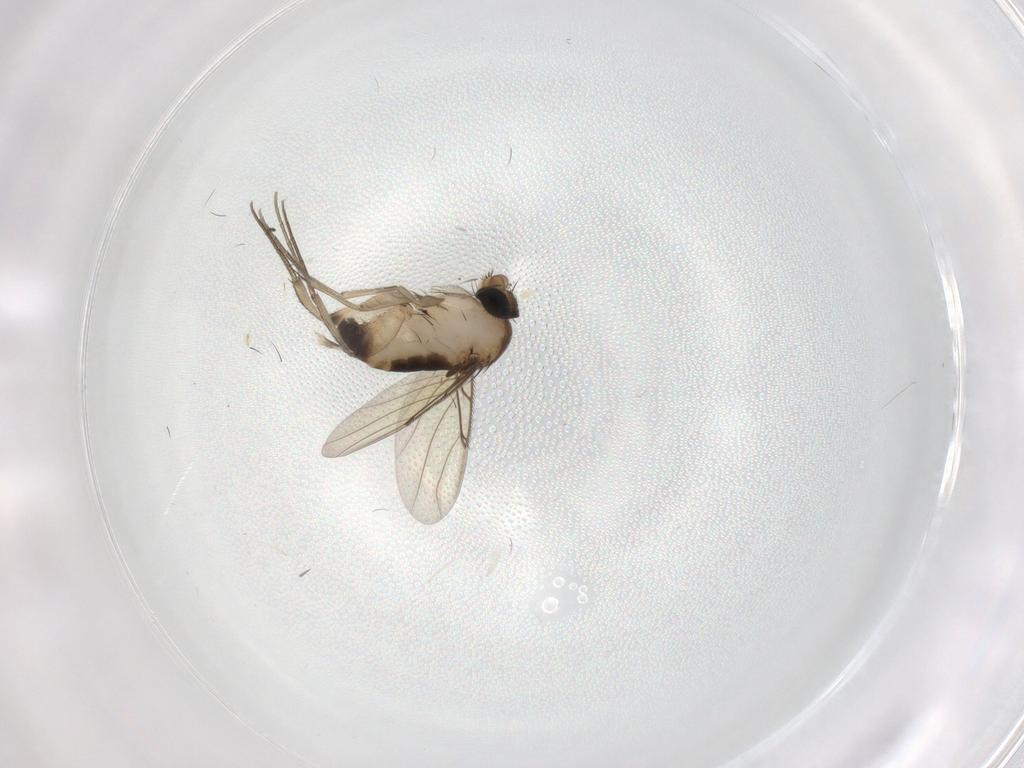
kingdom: Animalia
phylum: Arthropoda
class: Insecta
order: Diptera
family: Phoridae
